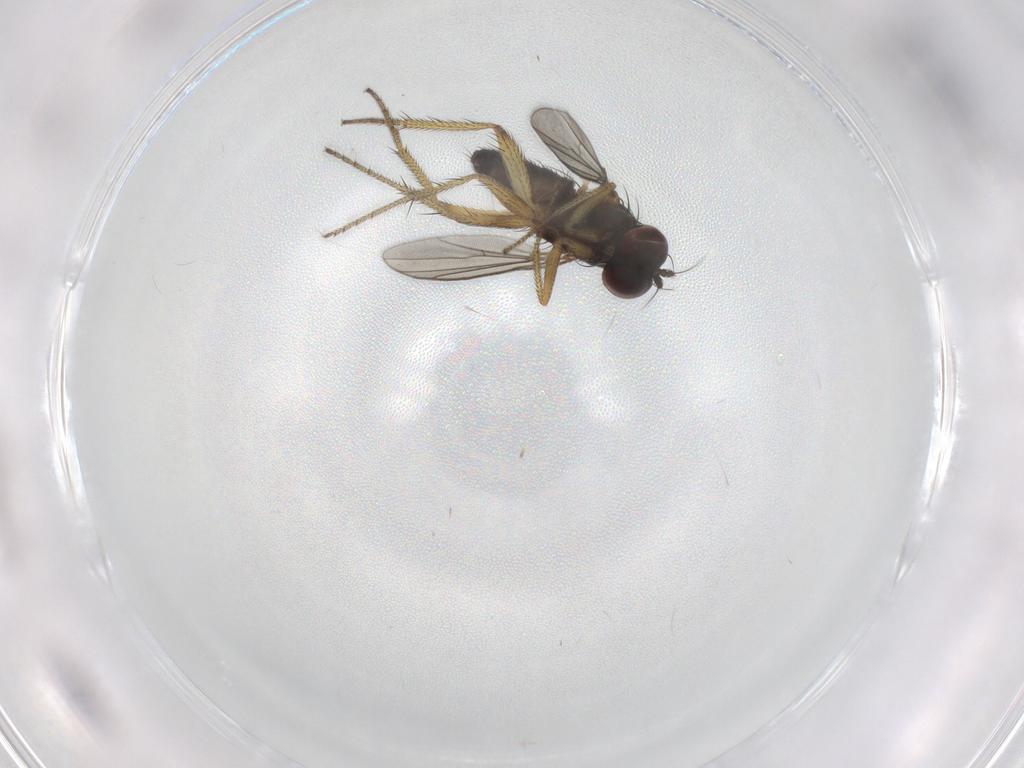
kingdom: Animalia
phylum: Arthropoda
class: Insecta
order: Diptera
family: Dolichopodidae
